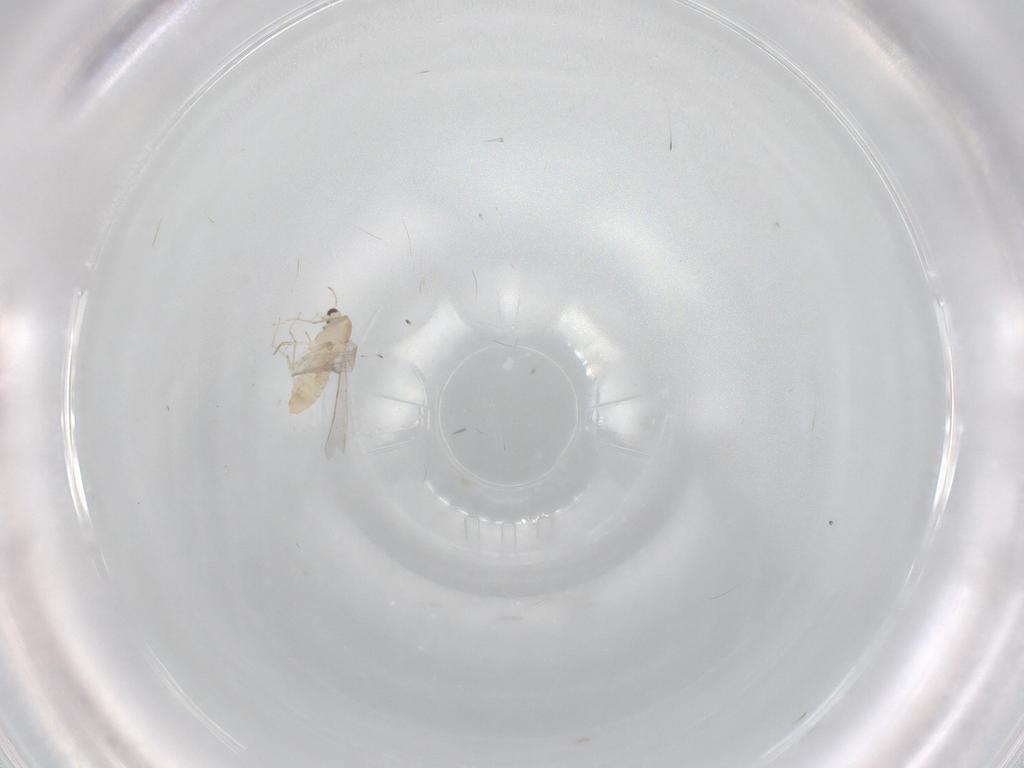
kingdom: Animalia
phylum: Arthropoda
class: Insecta
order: Diptera
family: Chironomidae
